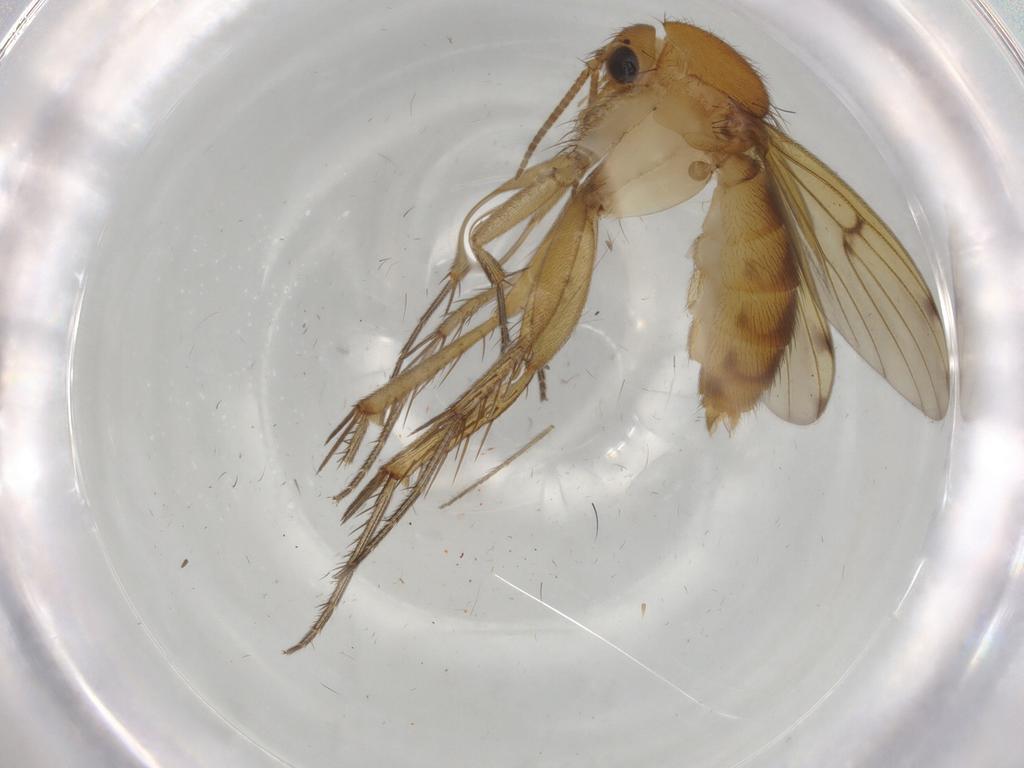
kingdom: Animalia
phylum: Arthropoda
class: Insecta
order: Diptera
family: Mycetophilidae
